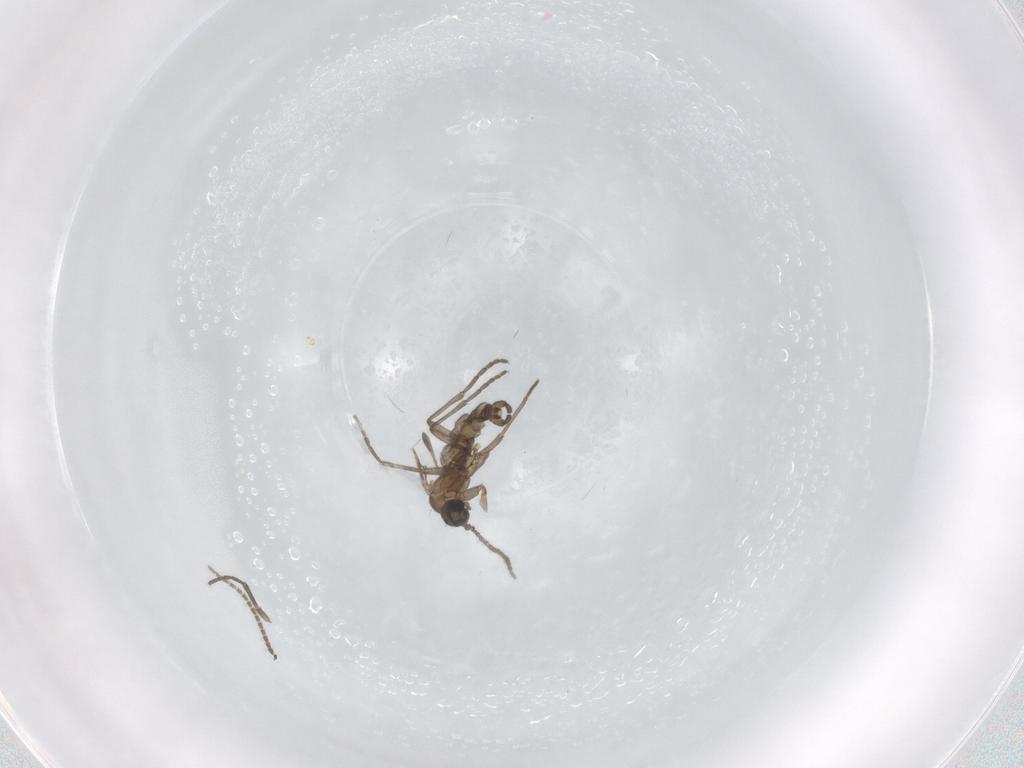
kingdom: Animalia
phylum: Arthropoda
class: Insecta
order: Diptera
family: Sciaridae
